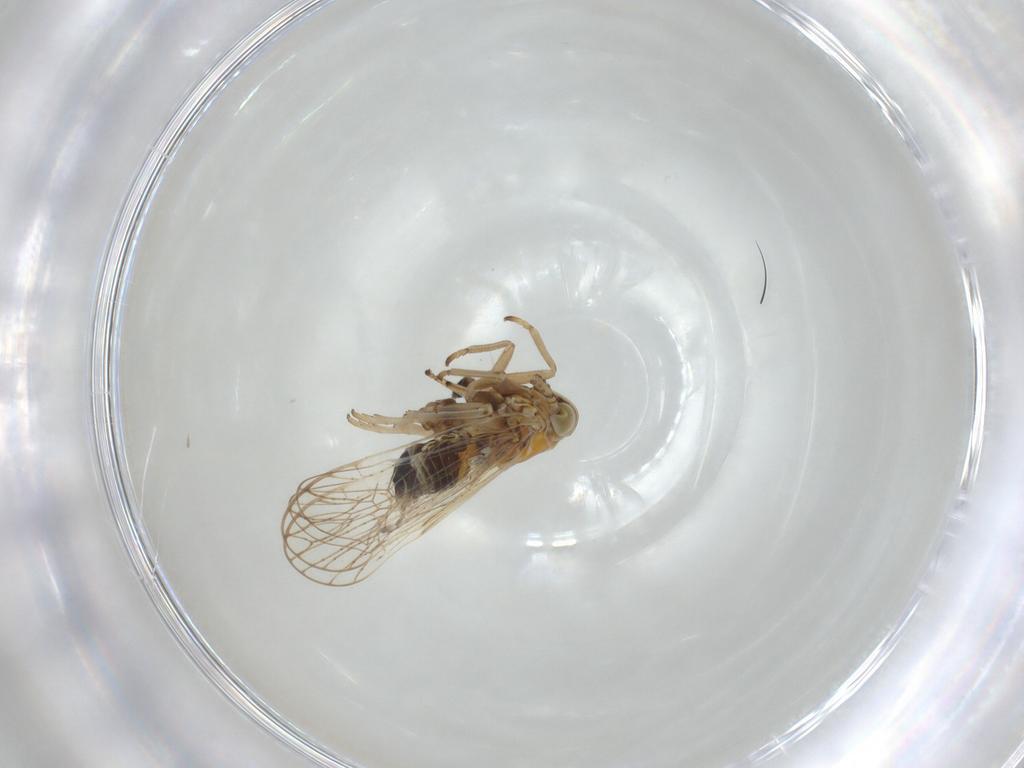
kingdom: Animalia
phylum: Arthropoda
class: Insecta
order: Hemiptera
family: Delphacidae
